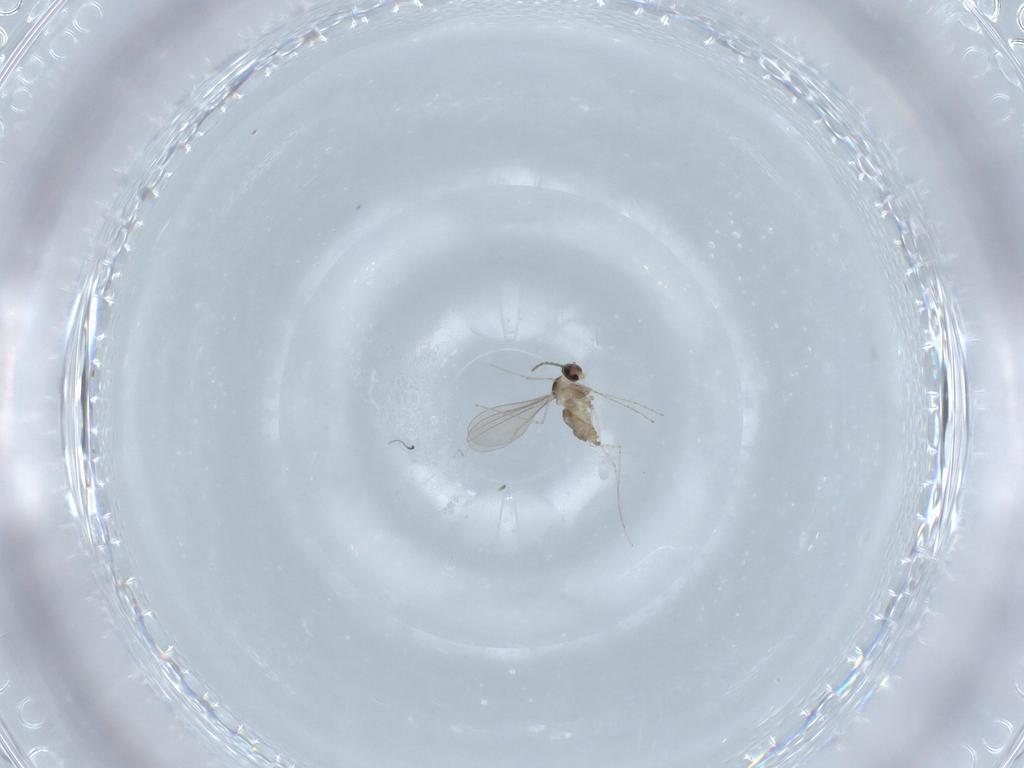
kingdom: Animalia
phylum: Arthropoda
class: Insecta
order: Diptera
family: Cecidomyiidae
